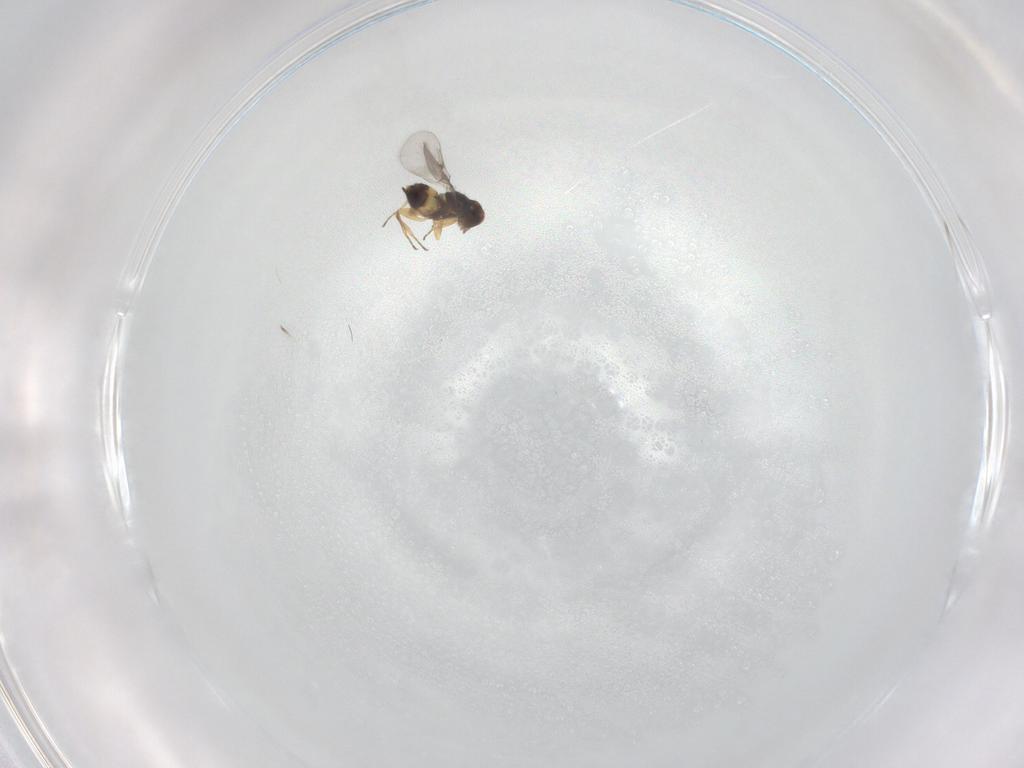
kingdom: Animalia
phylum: Arthropoda
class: Insecta
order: Hymenoptera
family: Eulophidae
